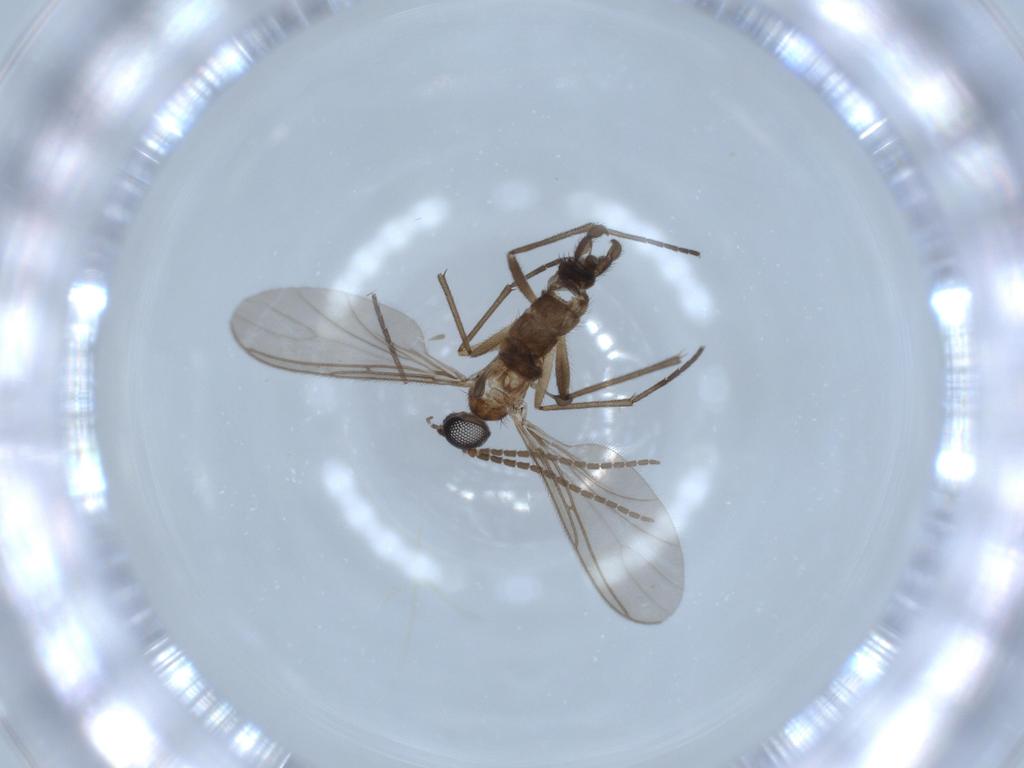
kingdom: Animalia
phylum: Arthropoda
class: Insecta
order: Diptera
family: Sciaridae
